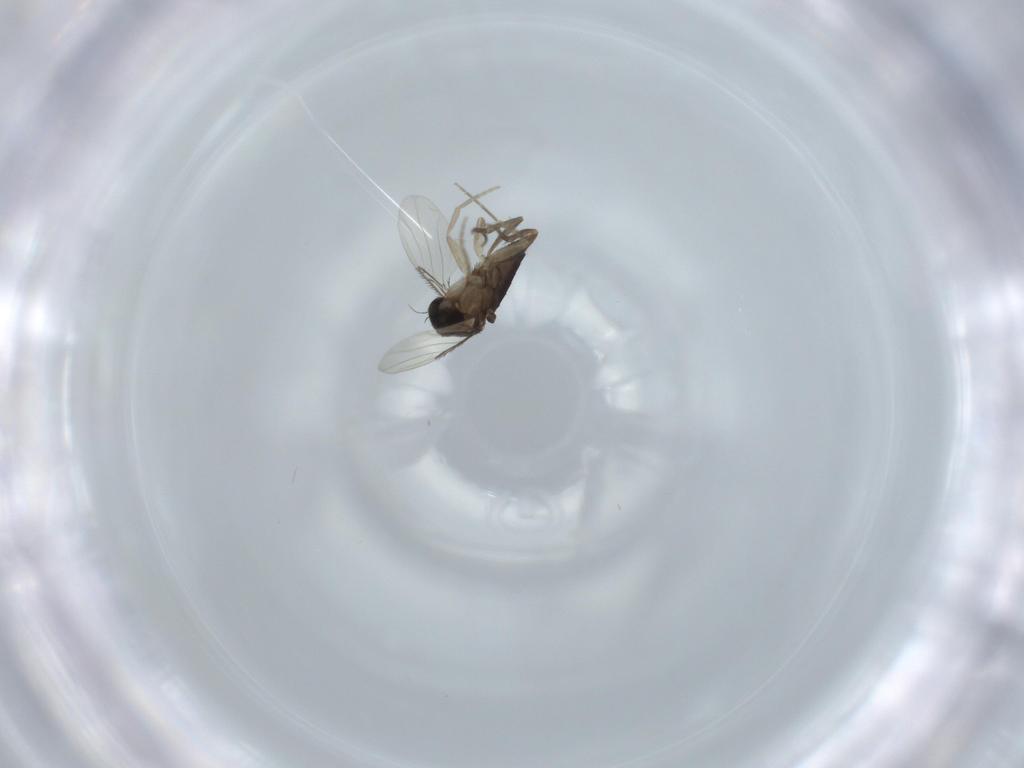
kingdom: Animalia
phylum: Arthropoda
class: Insecta
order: Diptera
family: Phoridae
